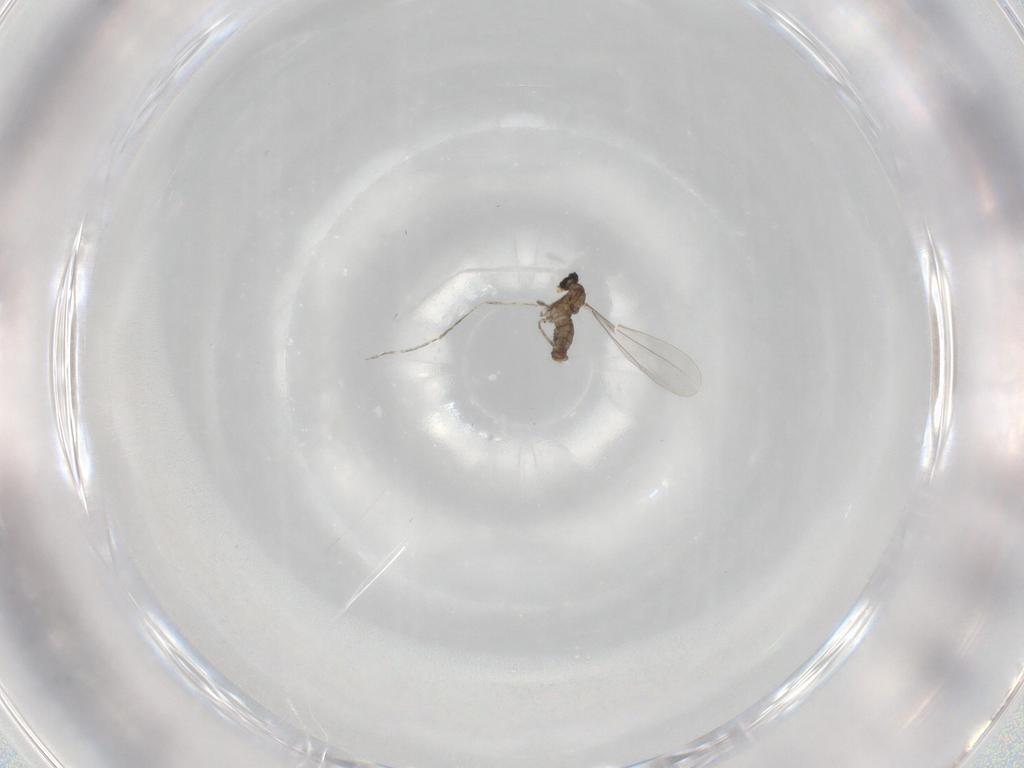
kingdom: Animalia
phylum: Arthropoda
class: Insecta
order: Diptera
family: Cecidomyiidae
